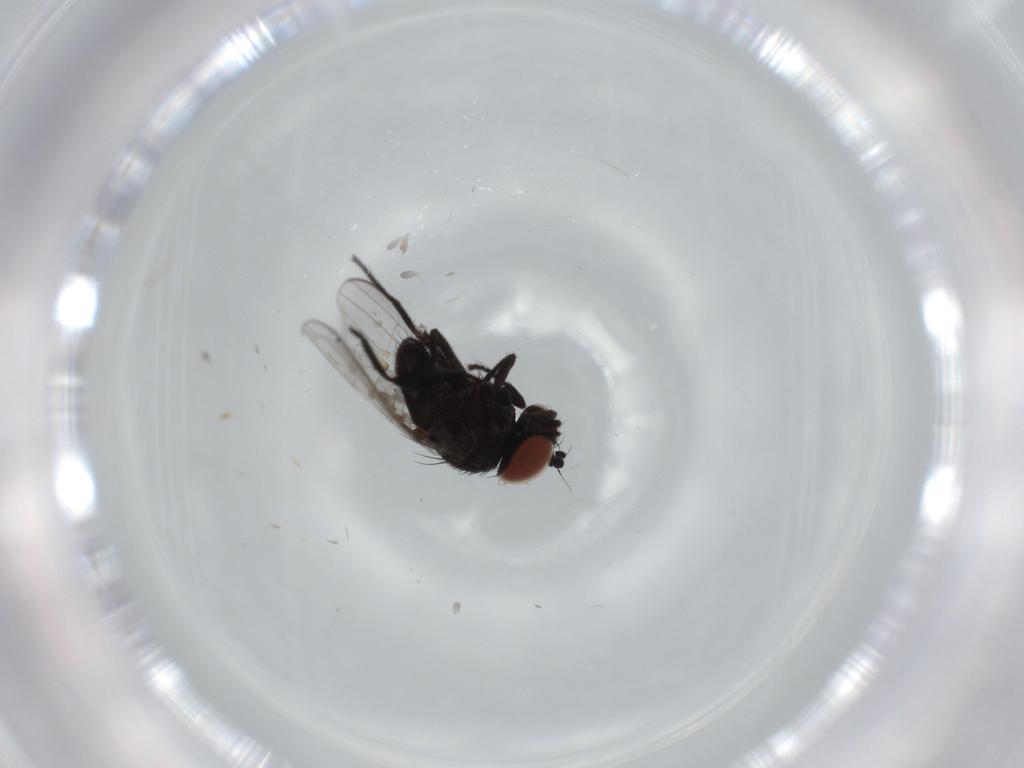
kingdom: Animalia
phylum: Arthropoda
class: Insecta
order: Diptera
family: Milichiidae
